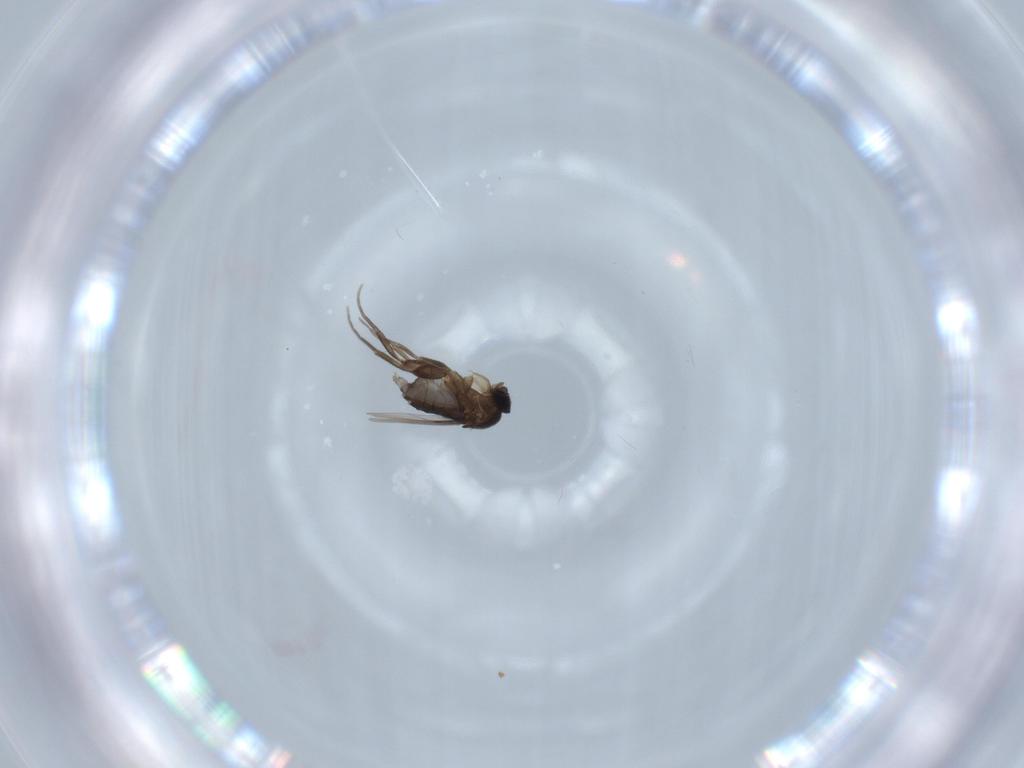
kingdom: Animalia
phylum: Arthropoda
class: Insecta
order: Diptera
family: Phoridae
